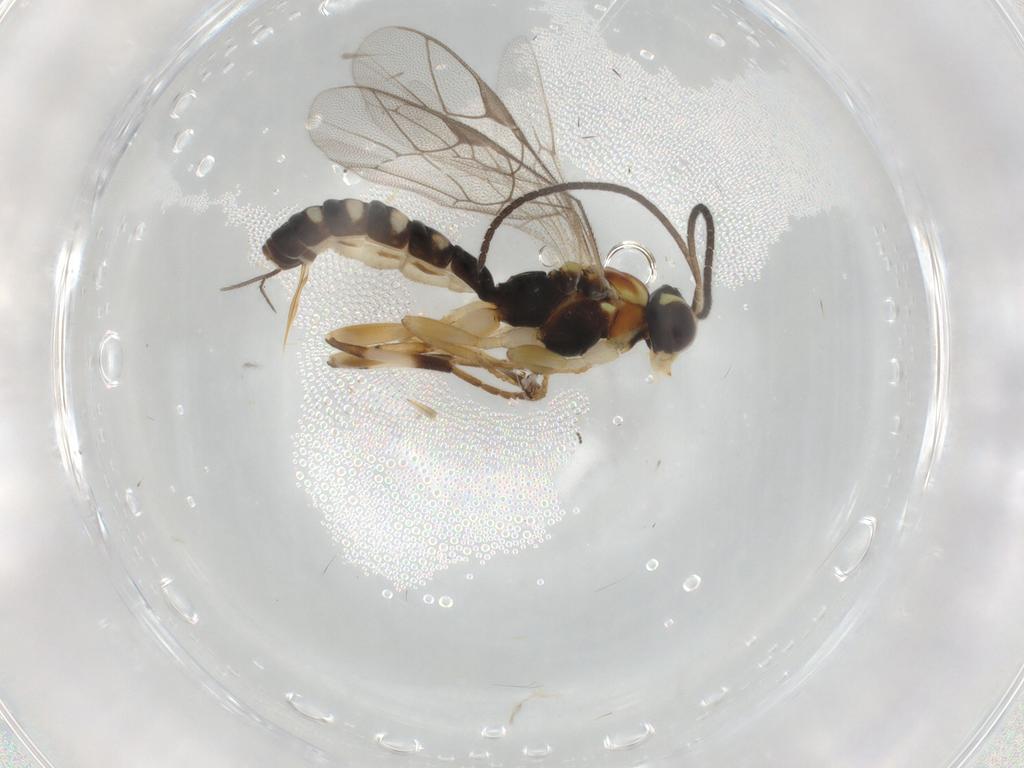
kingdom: Animalia
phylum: Arthropoda
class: Insecta
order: Hymenoptera
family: Ichneumonidae
